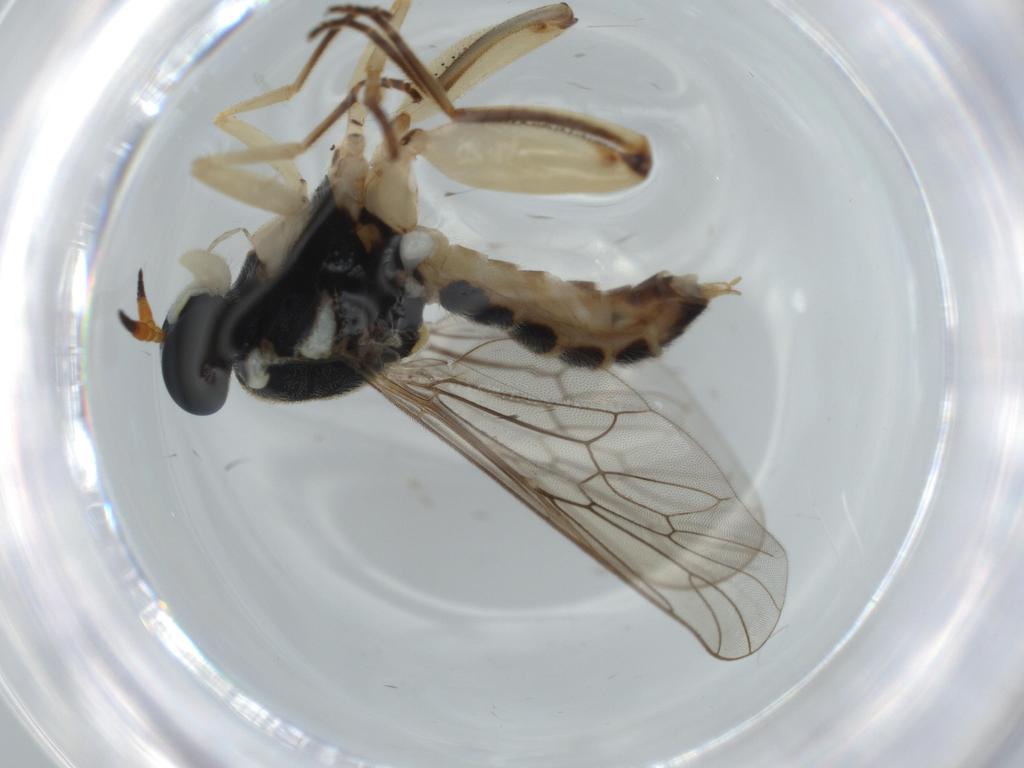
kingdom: Animalia
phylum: Arthropoda
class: Insecta
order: Diptera
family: Psychodidae
